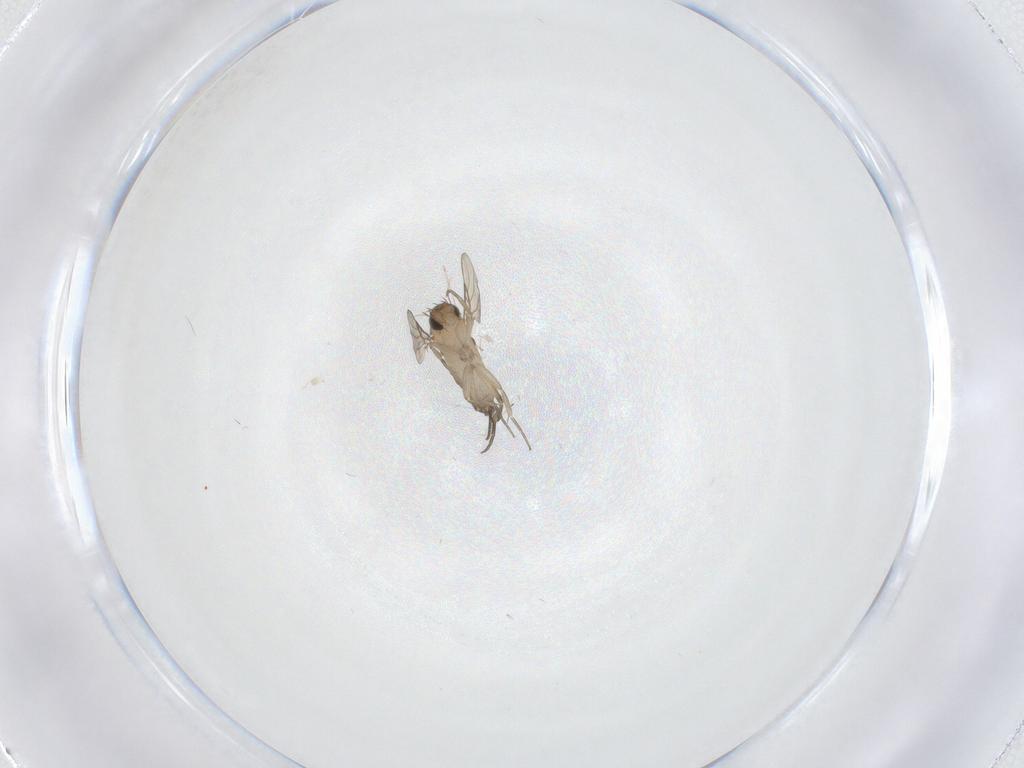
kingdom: Animalia
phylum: Arthropoda
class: Insecta
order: Diptera
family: Phoridae
